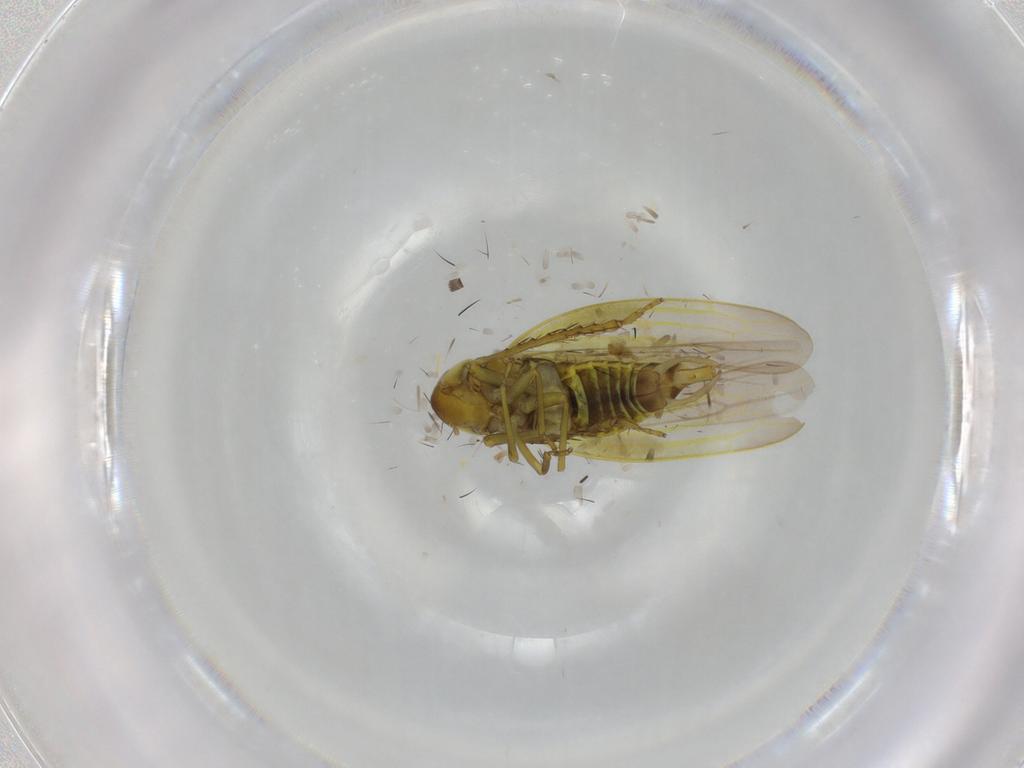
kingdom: Animalia
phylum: Arthropoda
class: Insecta
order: Hemiptera
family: Cicadellidae
